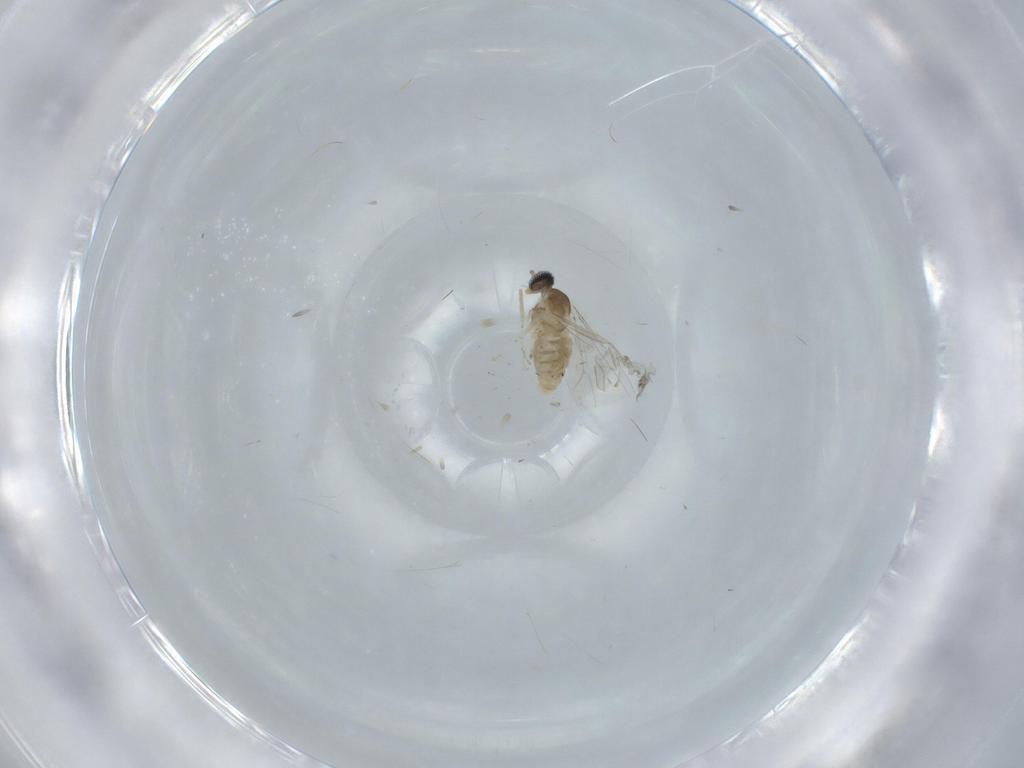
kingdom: Animalia
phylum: Arthropoda
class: Insecta
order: Diptera
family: Cecidomyiidae
